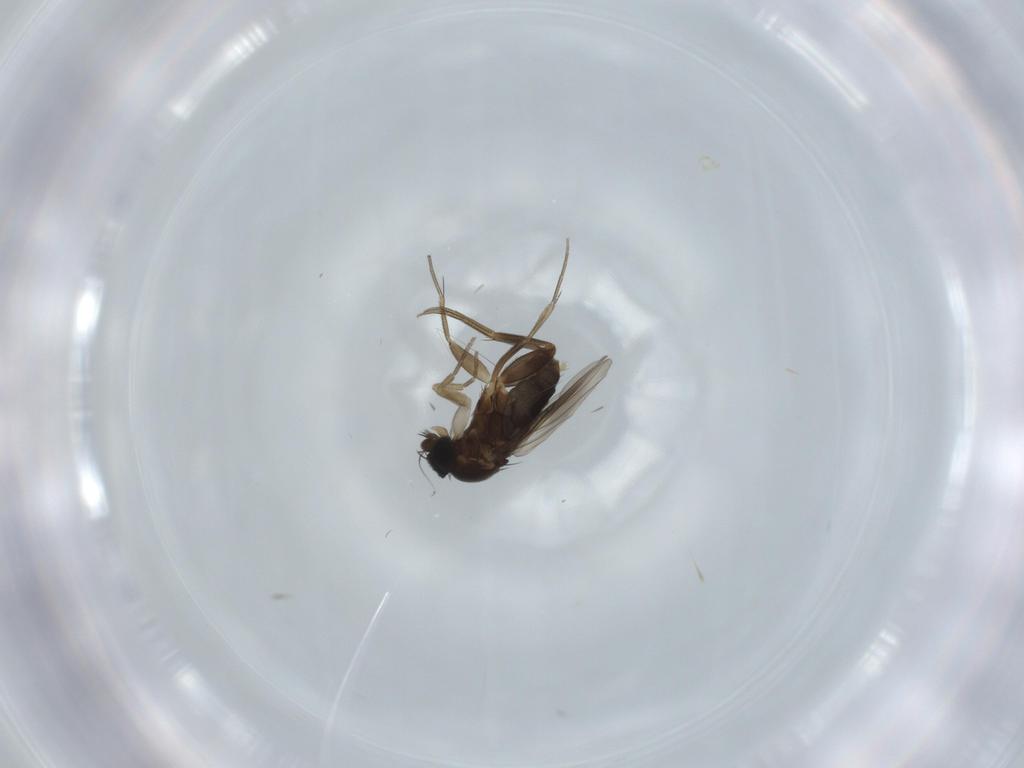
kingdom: Animalia
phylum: Arthropoda
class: Insecta
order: Diptera
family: Phoridae
